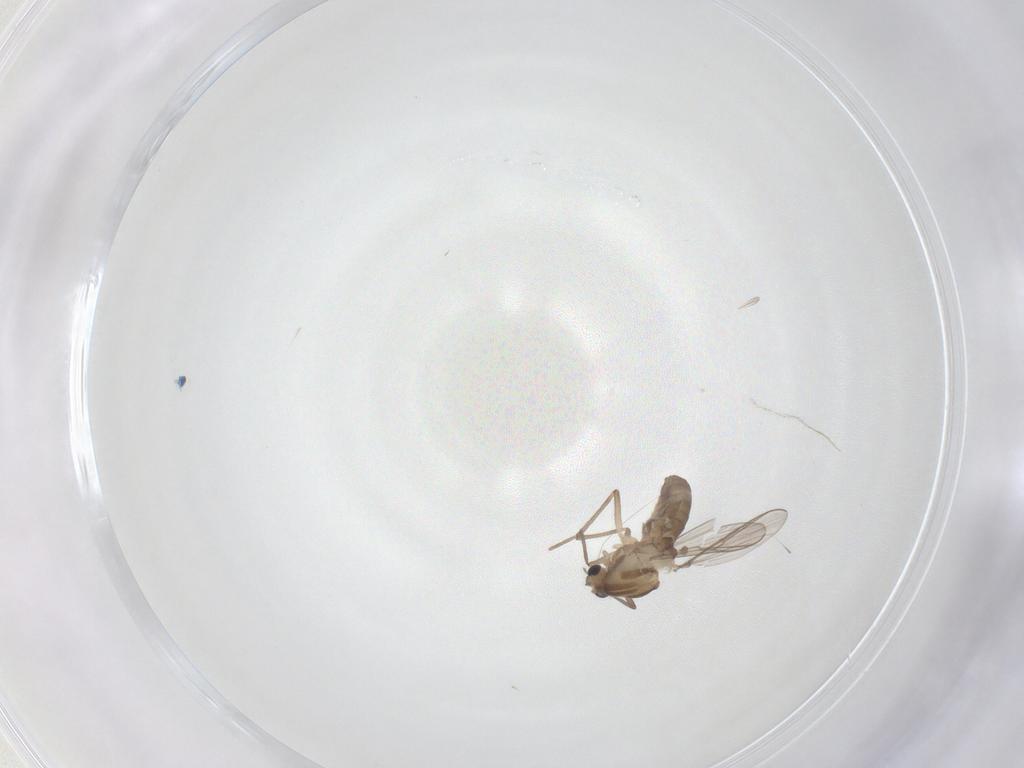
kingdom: Animalia
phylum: Arthropoda
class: Insecta
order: Diptera
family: Chironomidae
